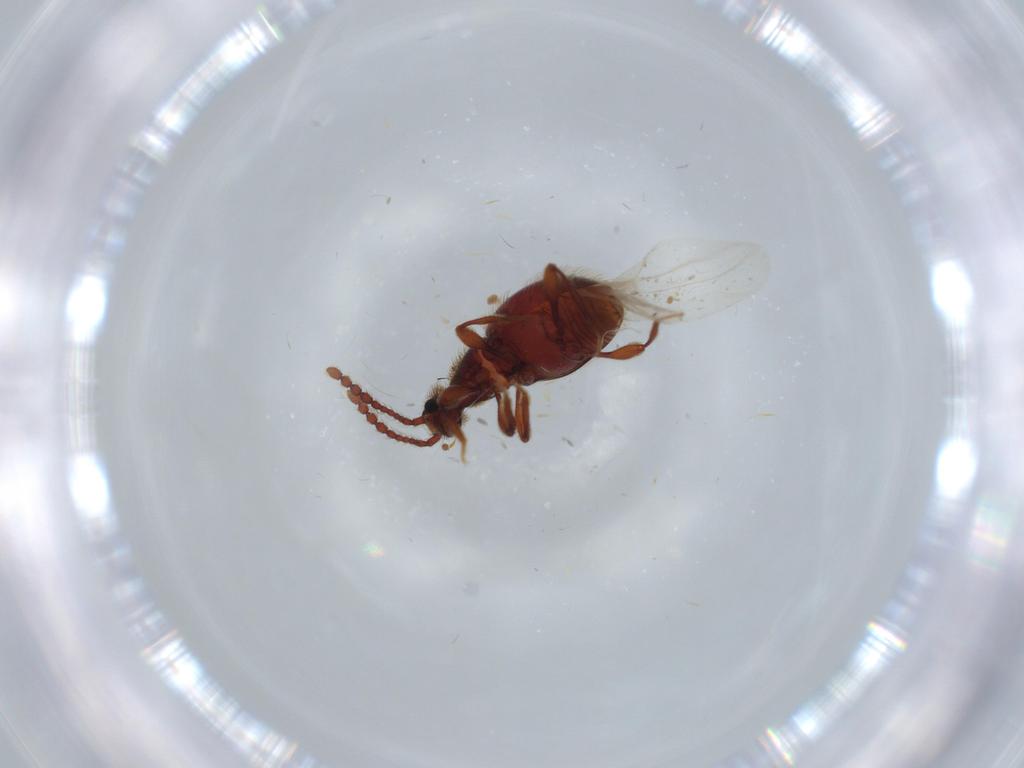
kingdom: Animalia
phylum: Arthropoda
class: Insecta
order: Coleoptera
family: Staphylinidae
